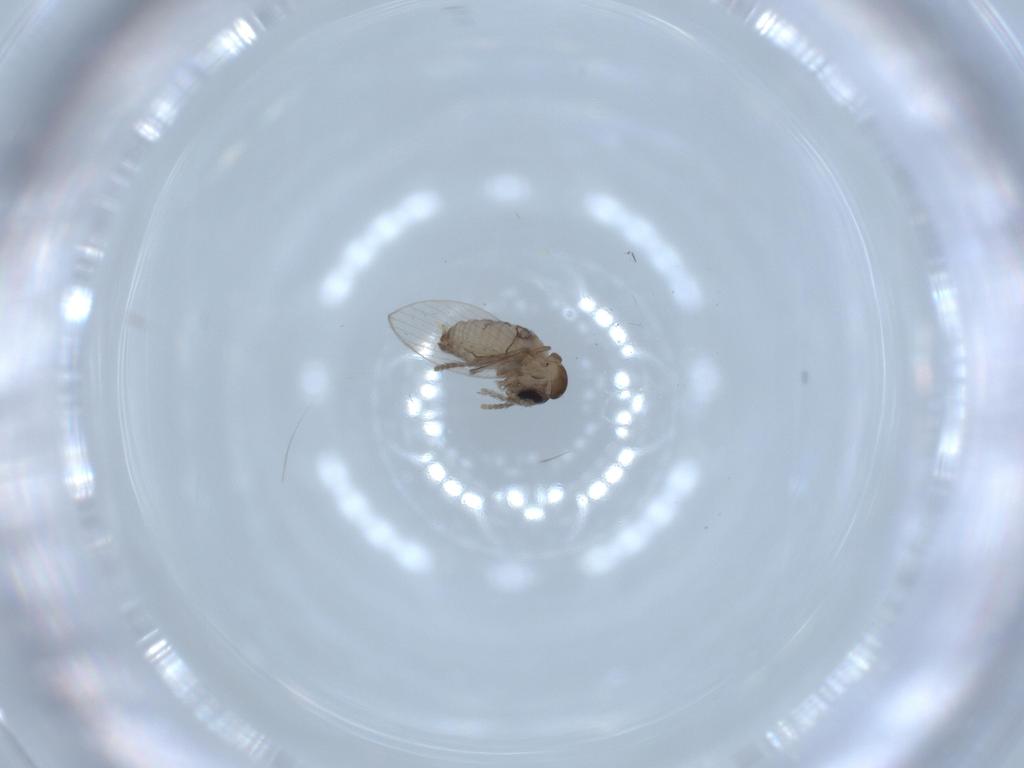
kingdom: Animalia
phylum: Arthropoda
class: Insecta
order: Diptera
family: Psychodidae
